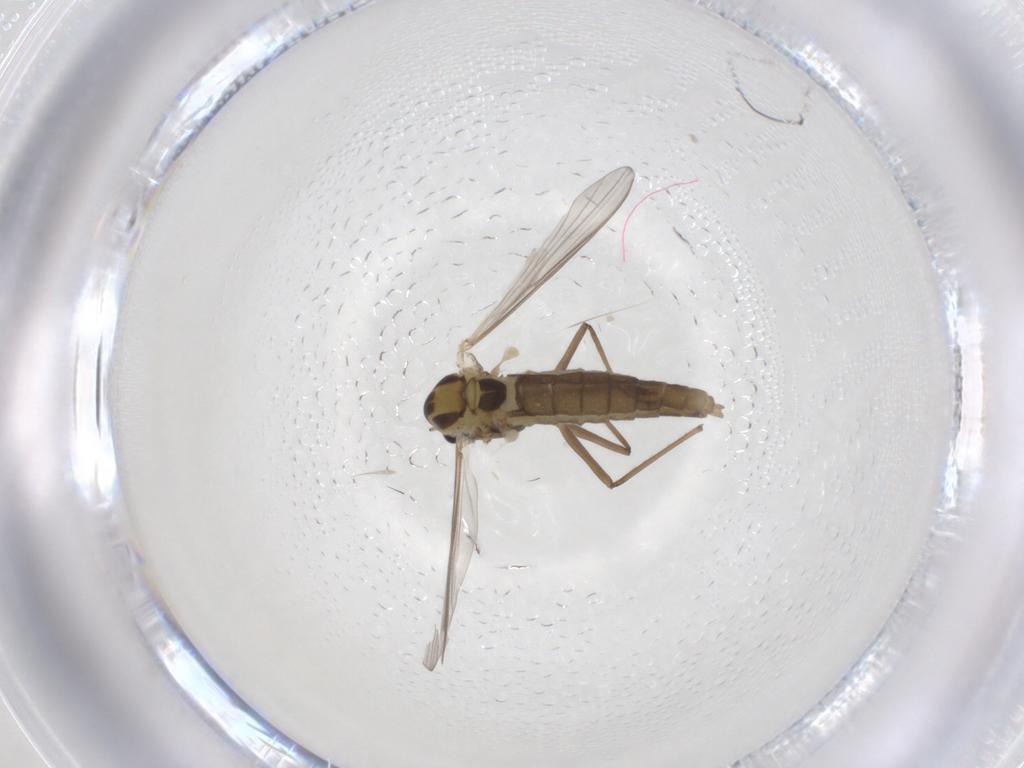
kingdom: Animalia
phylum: Arthropoda
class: Insecta
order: Diptera
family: Chironomidae
